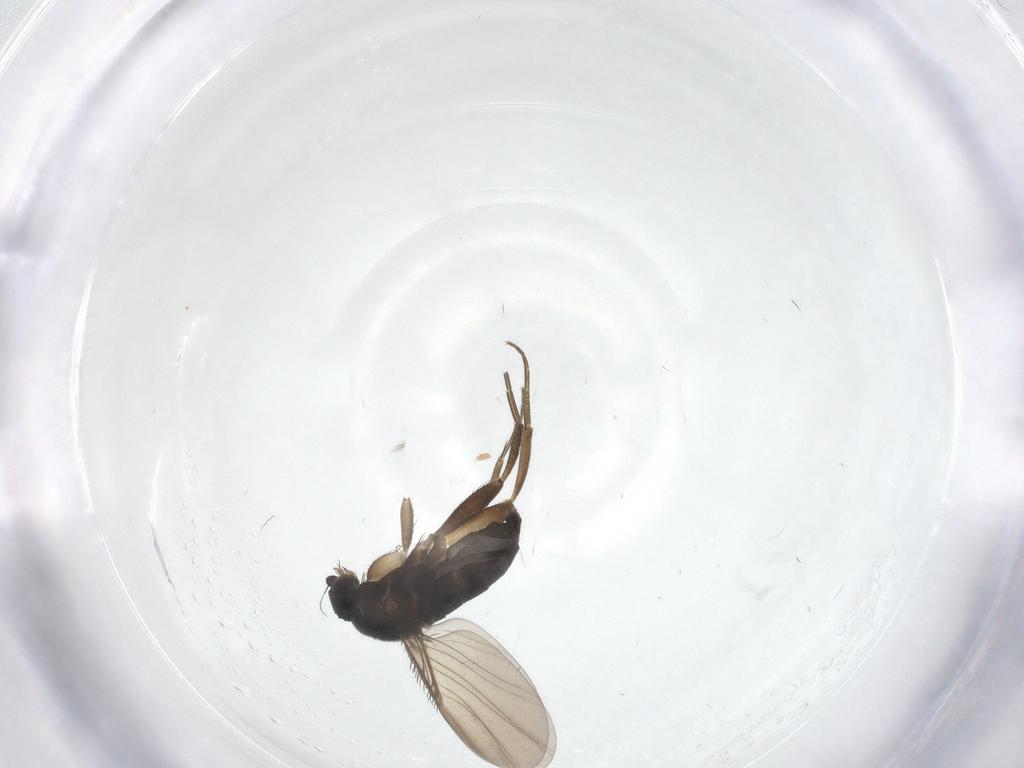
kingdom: Animalia
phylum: Arthropoda
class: Insecta
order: Diptera
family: Phoridae
